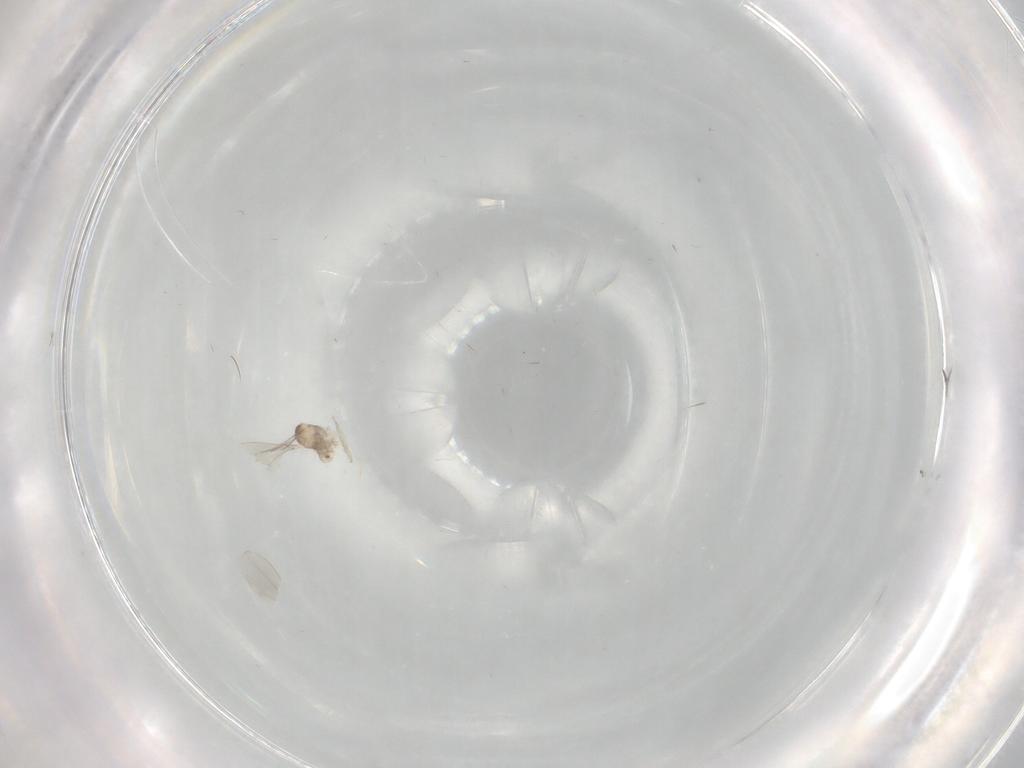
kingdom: Animalia
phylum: Arthropoda
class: Insecta
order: Diptera
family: Cecidomyiidae
